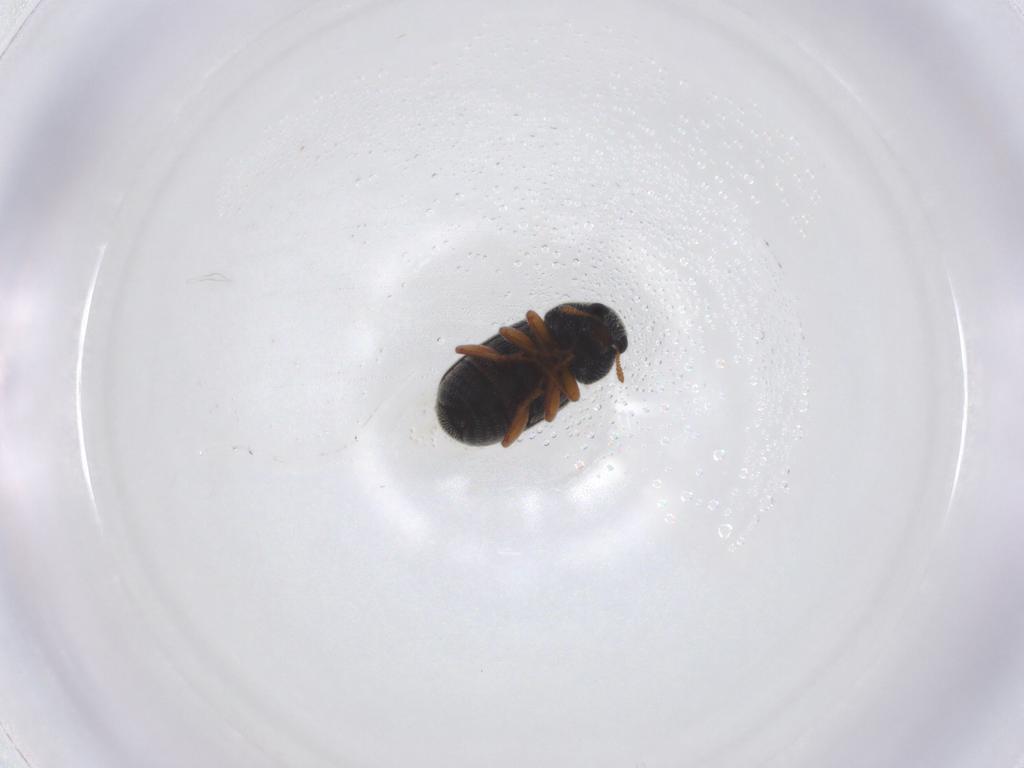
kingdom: Animalia
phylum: Arthropoda
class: Insecta
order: Coleoptera
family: Anthribidae
